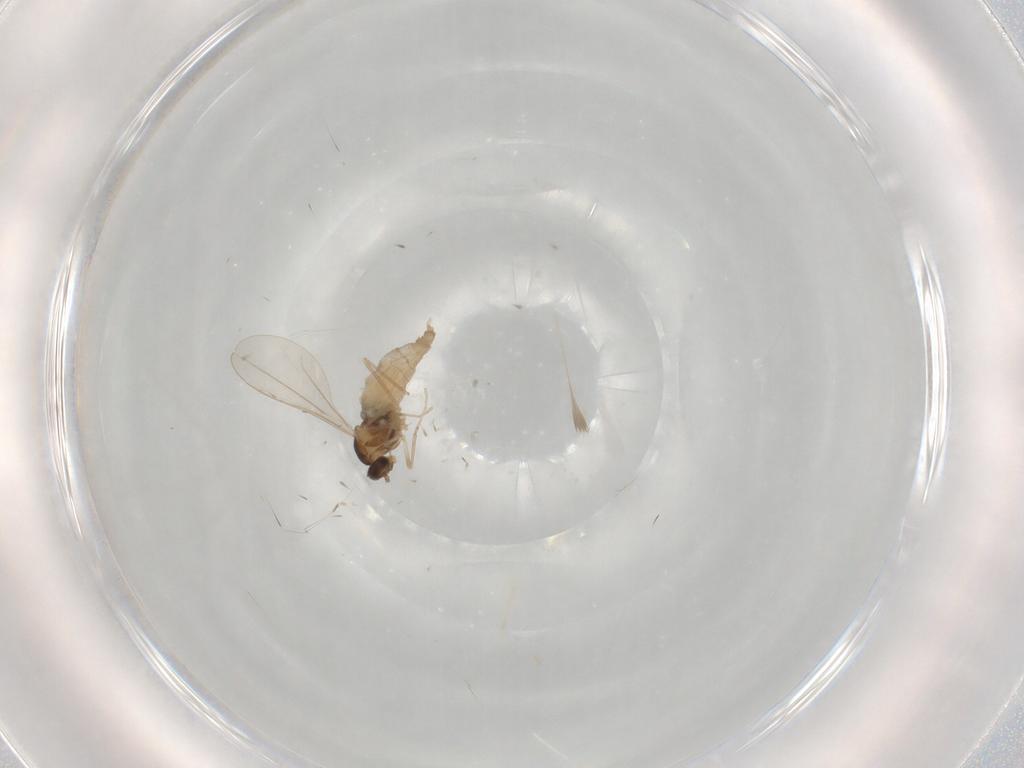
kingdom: Animalia
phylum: Arthropoda
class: Insecta
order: Diptera
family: Cecidomyiidae
